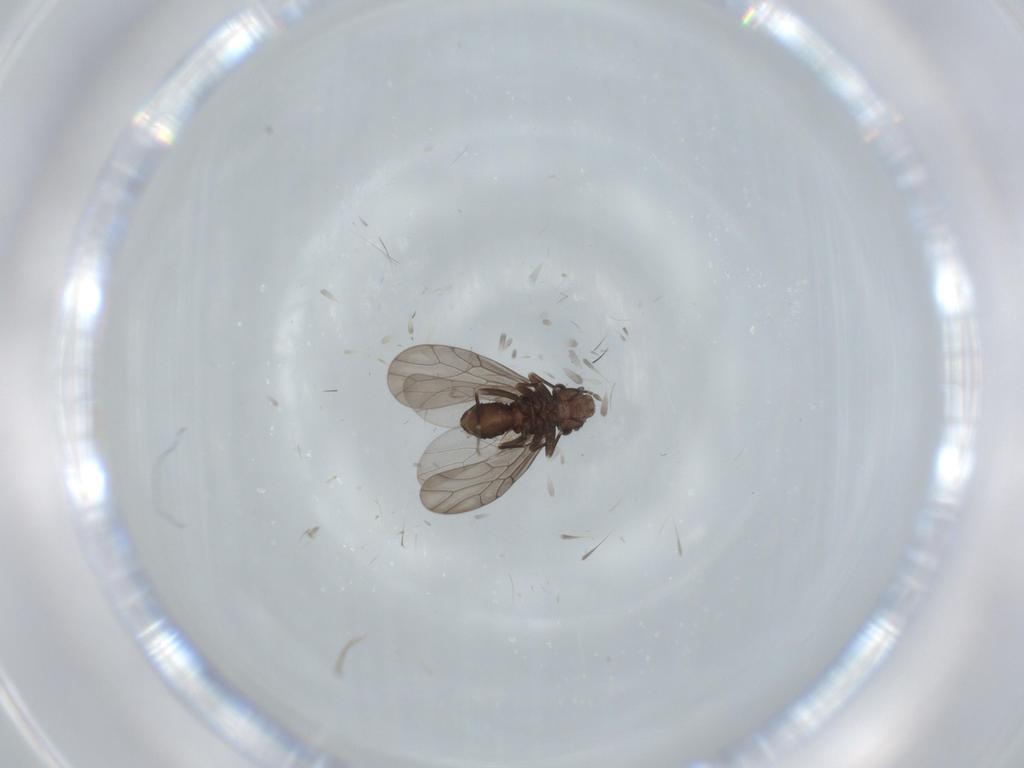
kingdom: Animalia
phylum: Arthropoda
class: Insecta
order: Psocodea
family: Lepidopsocidae
